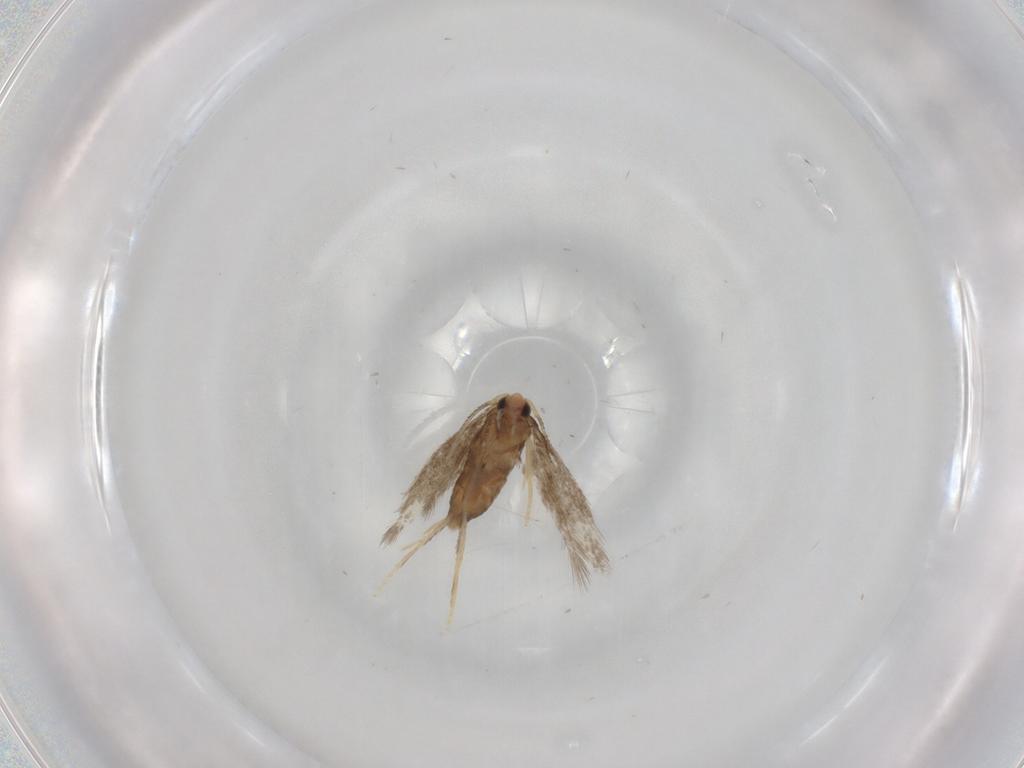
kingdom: Animalia
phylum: Arthropoda
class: Insecta
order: Lepidoptera
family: Nepticulidae
